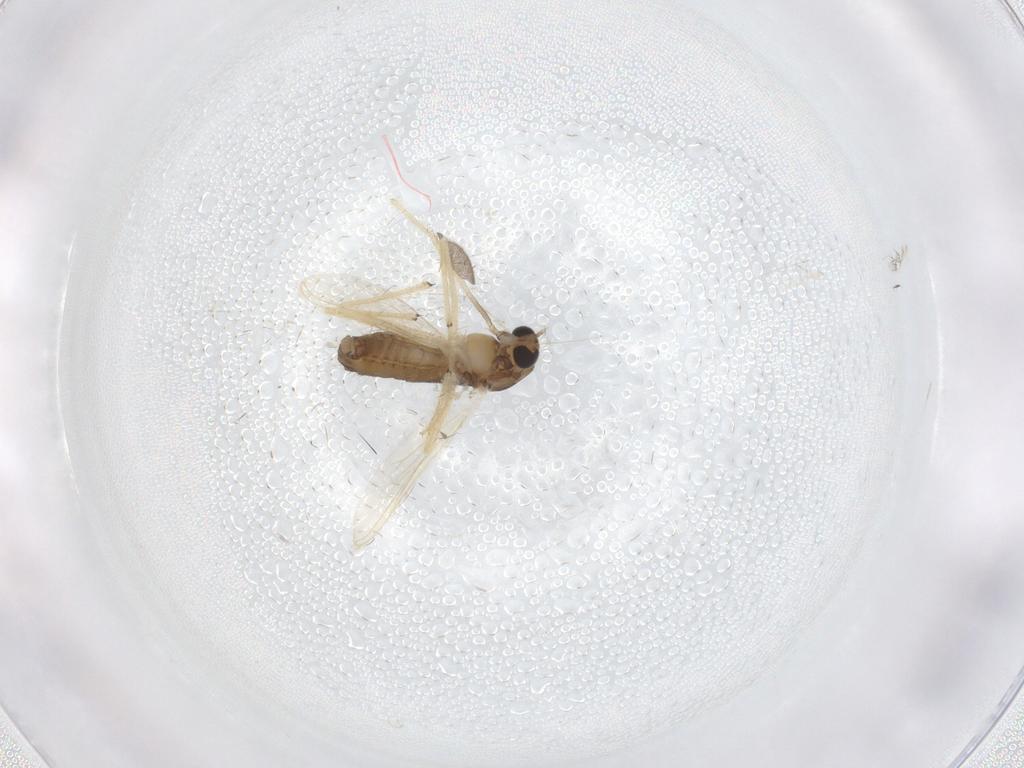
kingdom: Animalia
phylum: Arthropoda
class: Insecta
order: Diptera
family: Chironomidae
